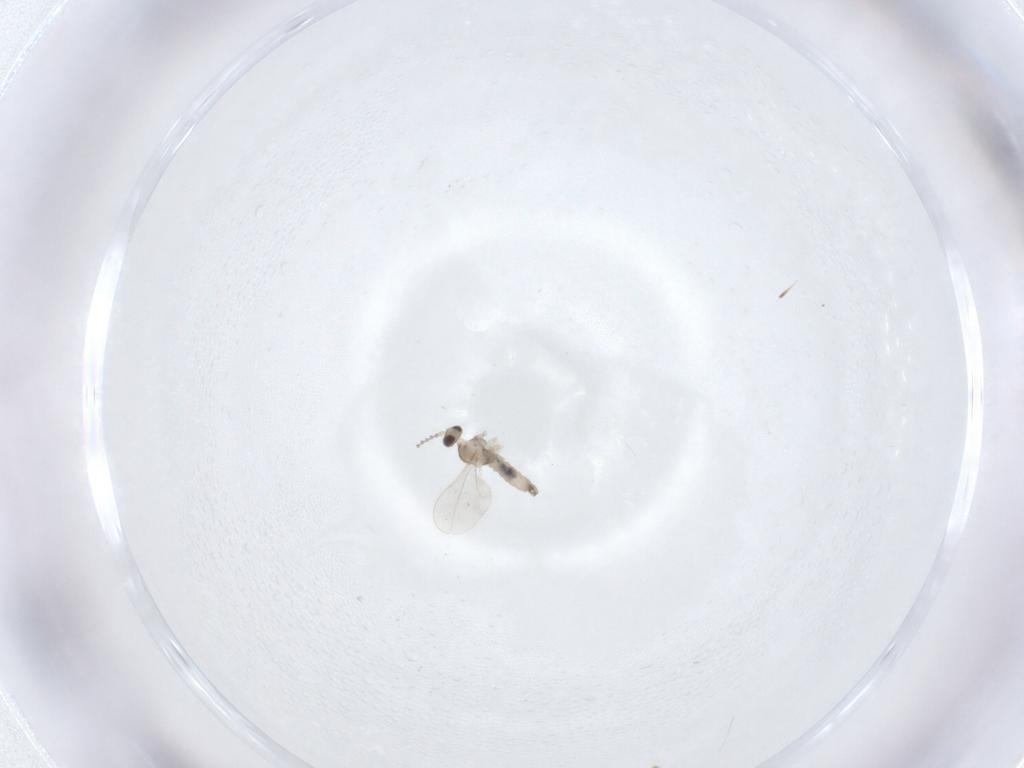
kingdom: Animalia
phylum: Arthropoda
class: Insecta
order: Diptera
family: Cecidomyiidae
